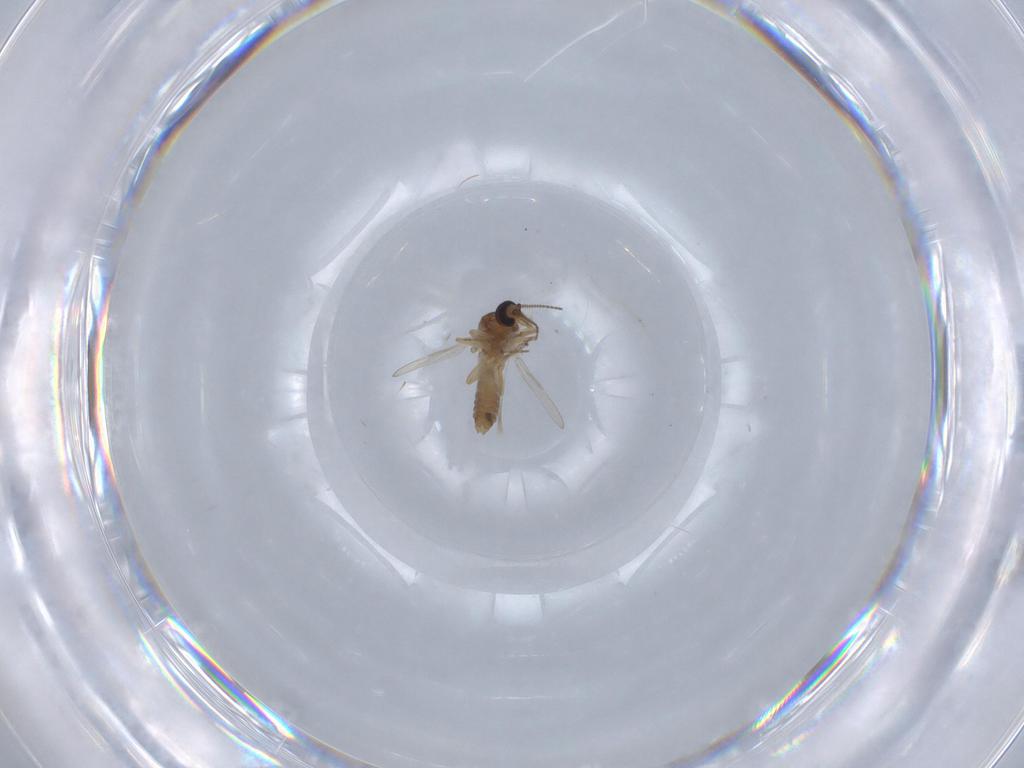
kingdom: Animalia
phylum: Arthropoda
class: Insecta
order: Diptera
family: Ceratopogonidae
